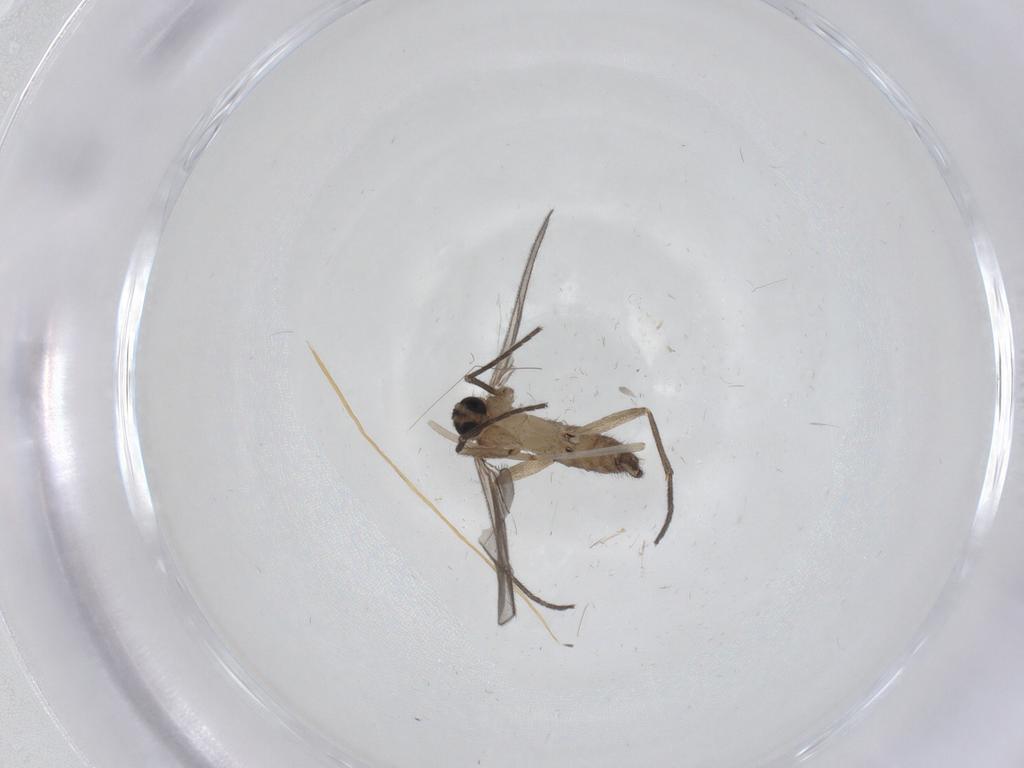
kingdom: Animalia
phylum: Arthropoda
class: Insecta
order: Diptera
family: Sciaridae
